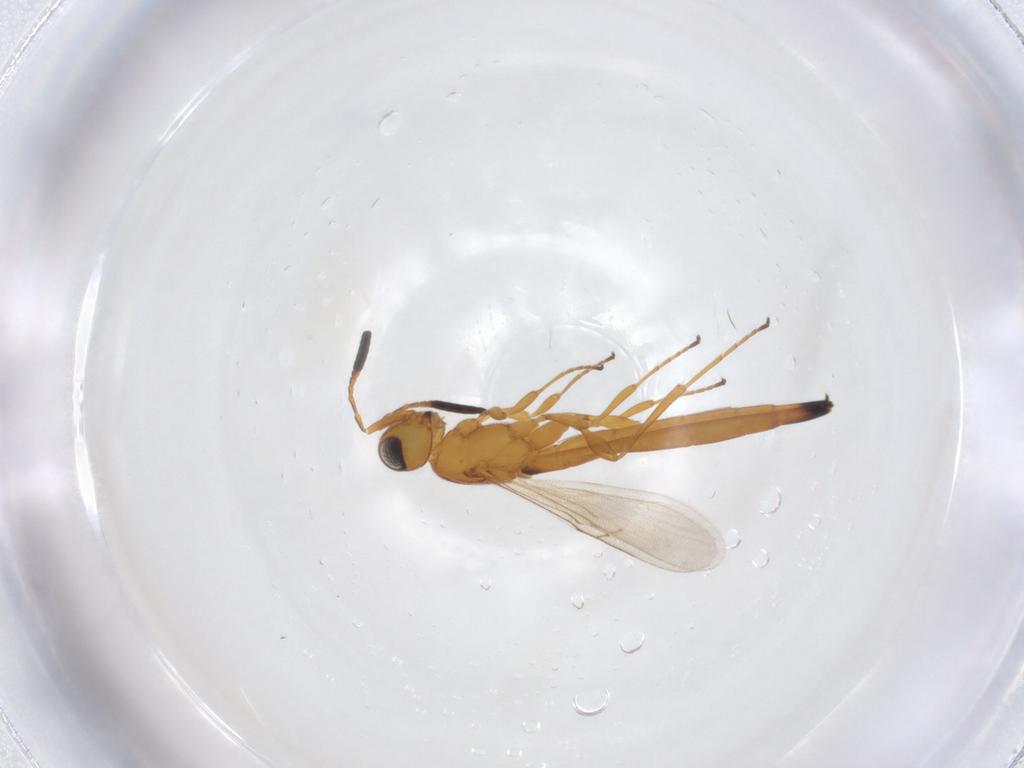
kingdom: Animalia
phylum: Arthropoda
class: Insecta
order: Hymenoptera
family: Scelionidae
